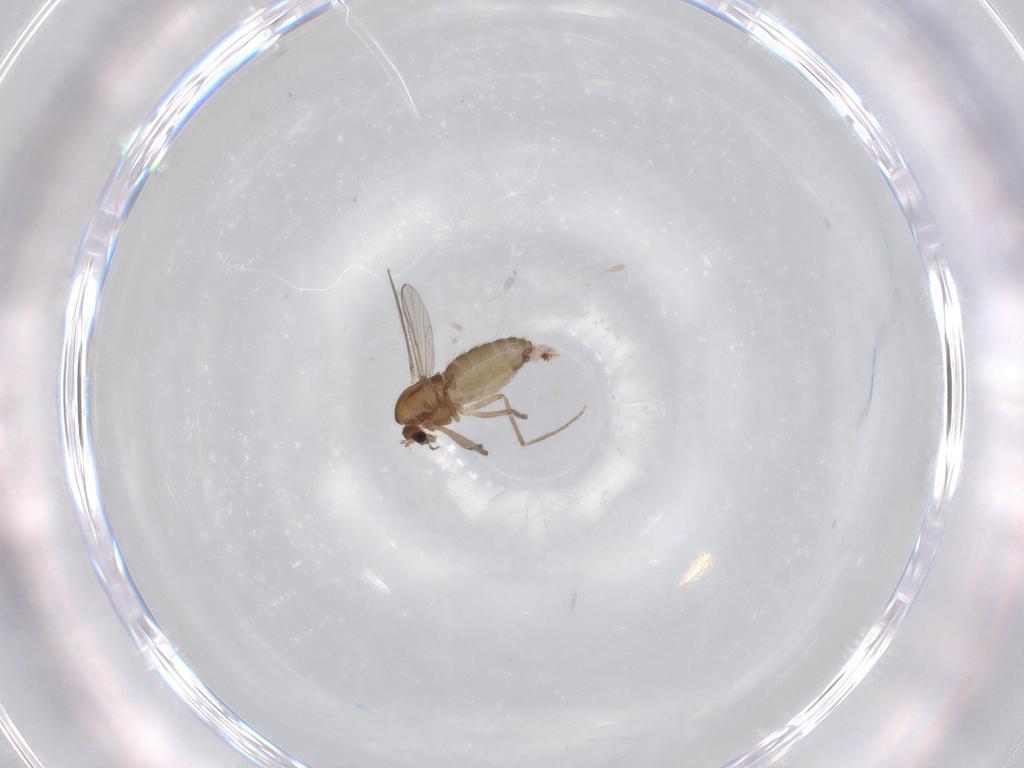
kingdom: Animalia
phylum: Arthropoda
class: Insecta
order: Diptera
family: Chironomidae
